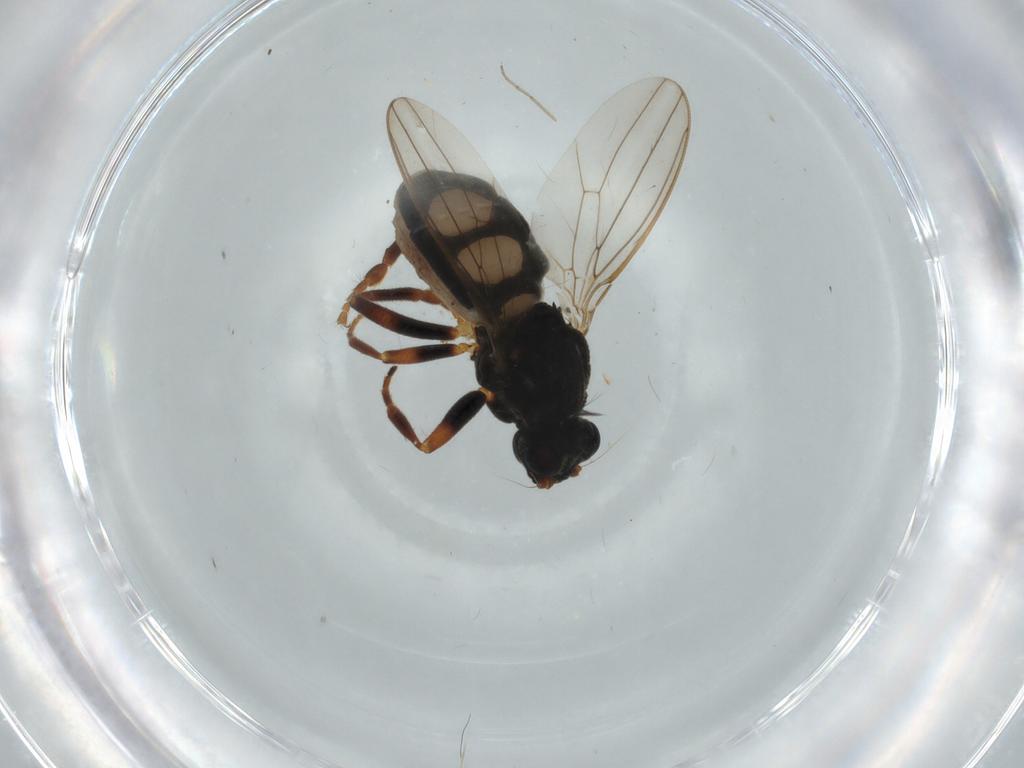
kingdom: Animalia
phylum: Arthropoda
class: Insecta
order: Diptera
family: Sphaeroceridae
